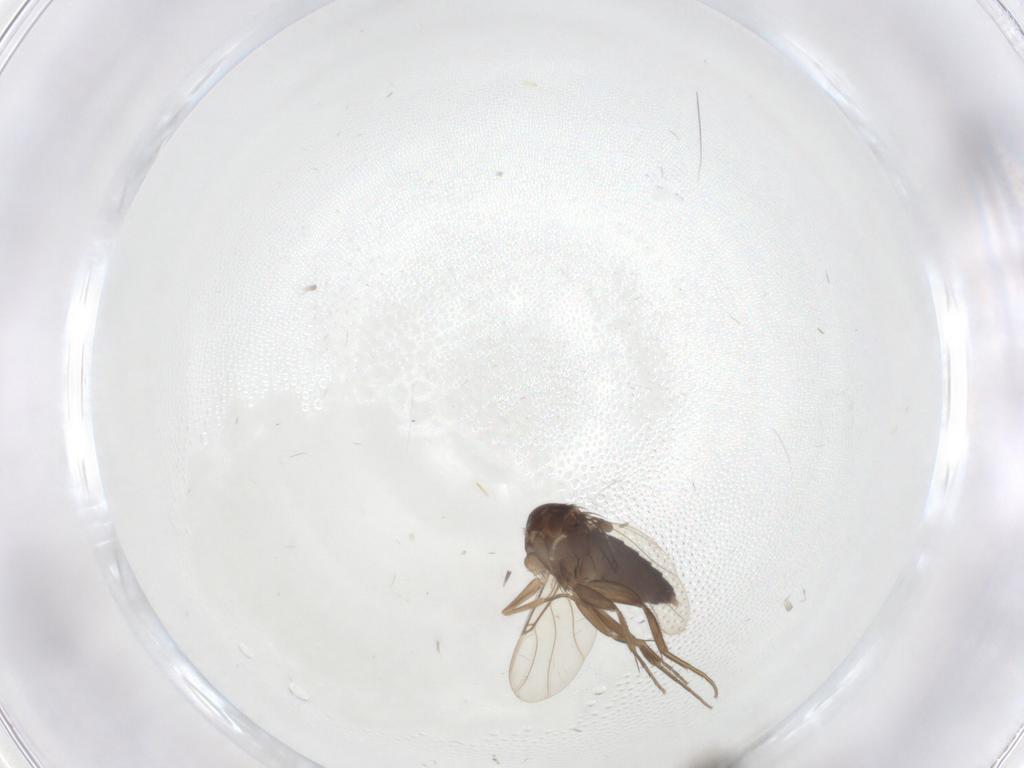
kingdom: Animalia
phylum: Arthropoda
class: Insecta
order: Diptera
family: Phoridae
